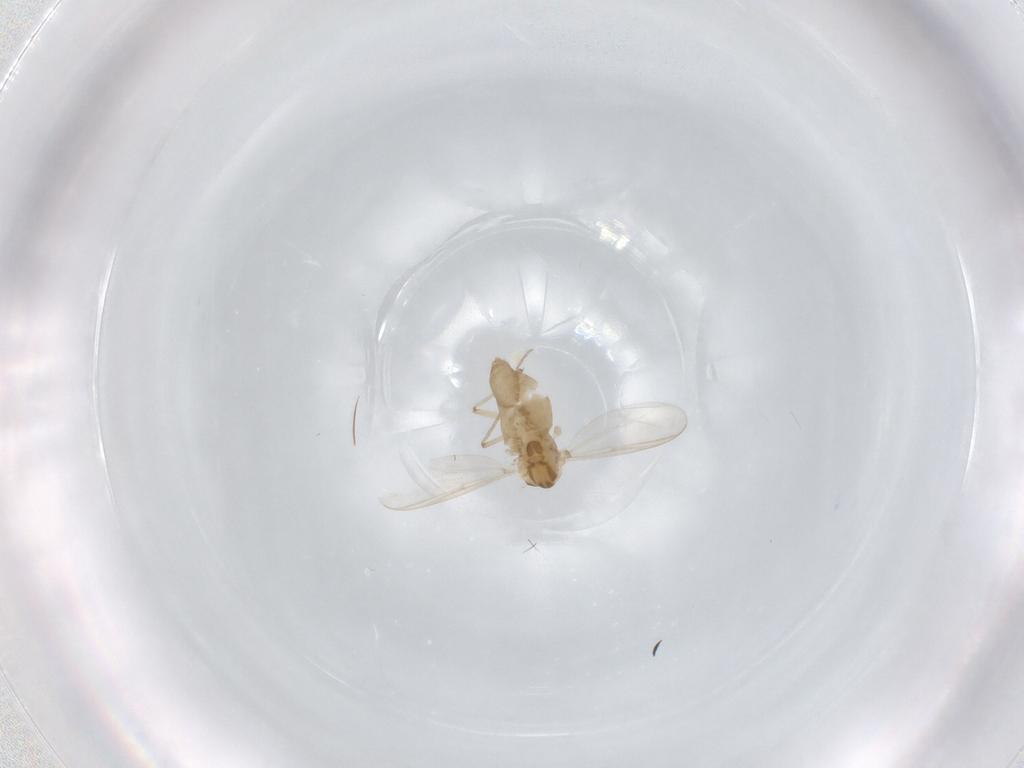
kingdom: Animalia
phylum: Arthropoda
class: Insecta
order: Diptera
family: Chironomidae
